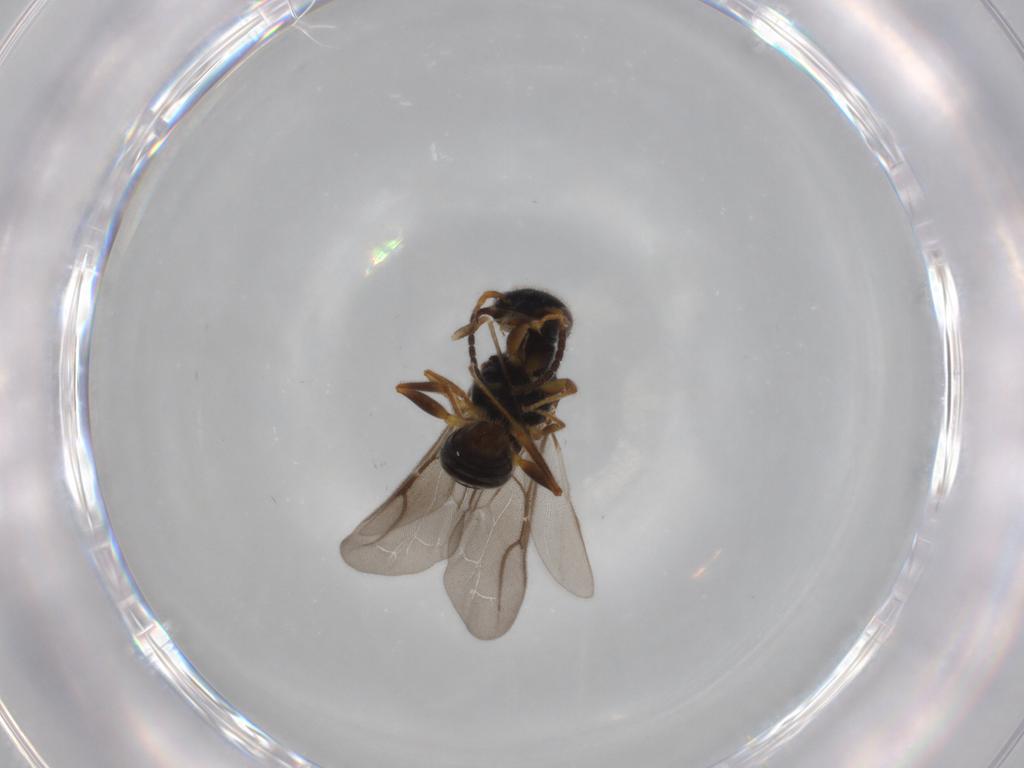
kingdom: Animalia
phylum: Arthropoda
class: Insecta
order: Hymenoptera
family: Bethylidae
